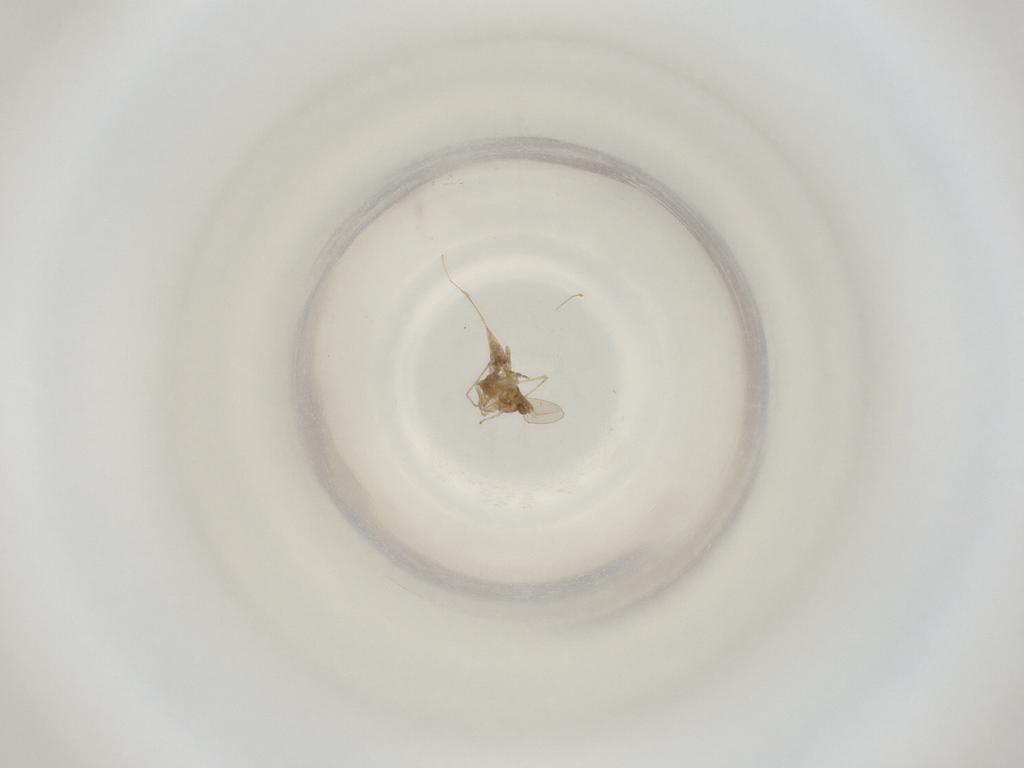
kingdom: Animalia
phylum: Arthropoda
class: Insecta
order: Diptera
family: Cecidomyiidae
